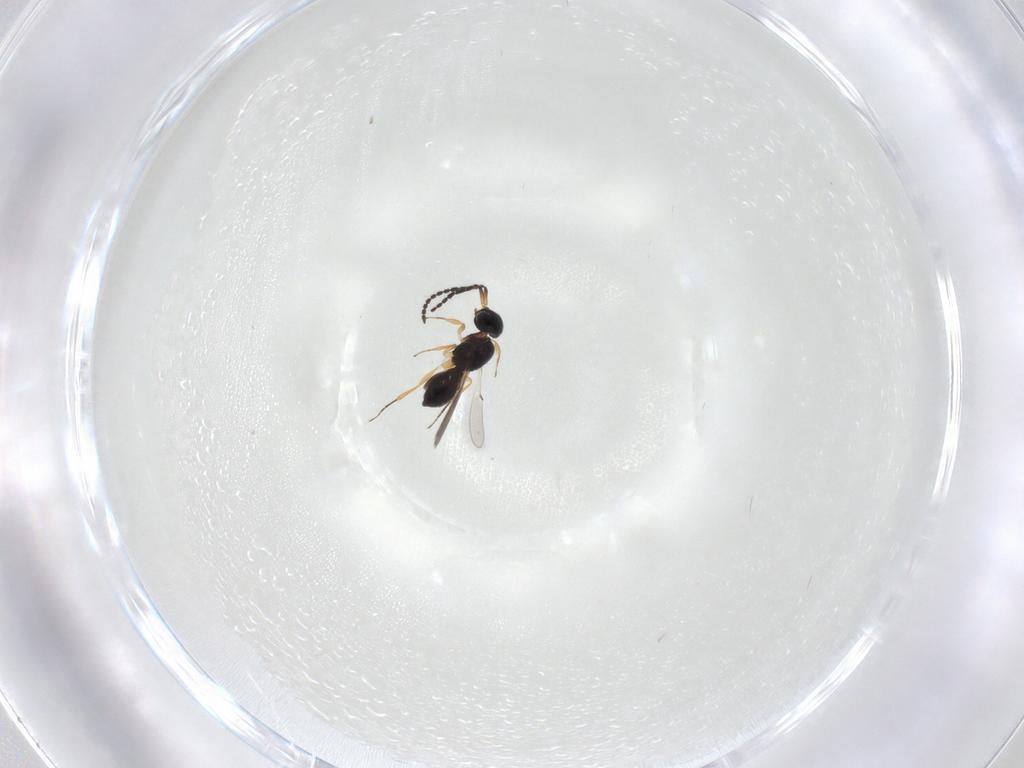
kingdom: Animalia
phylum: Arthropoda
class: Insecta
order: Hymenoptera
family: Scelionidae
